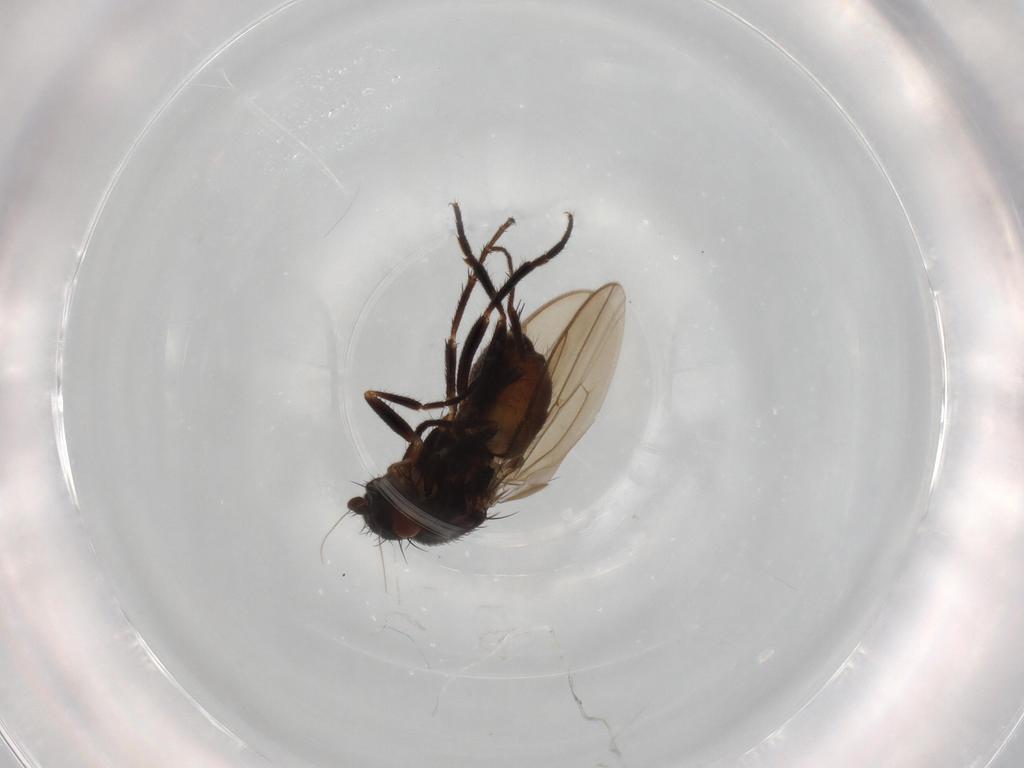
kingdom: Animalia
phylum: Arthropoda
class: Insecta
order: Diptera
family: Sphaeroceridae
